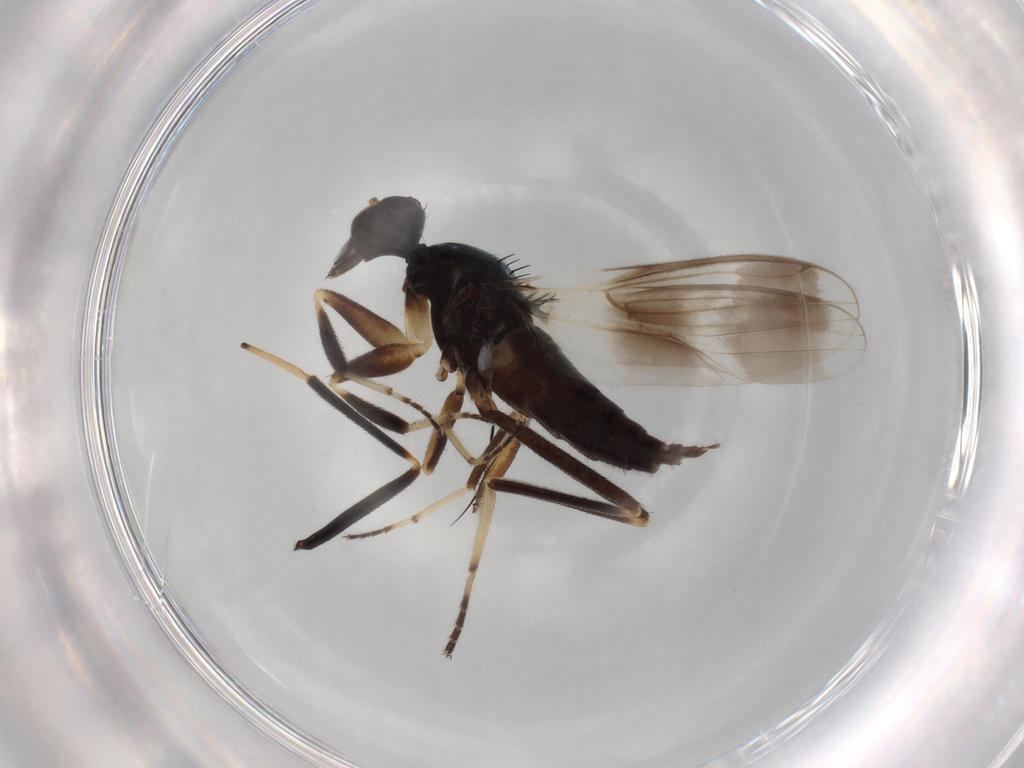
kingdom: Animalia
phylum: Arthropoda
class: Insecta
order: Diptera
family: Hybotidae
